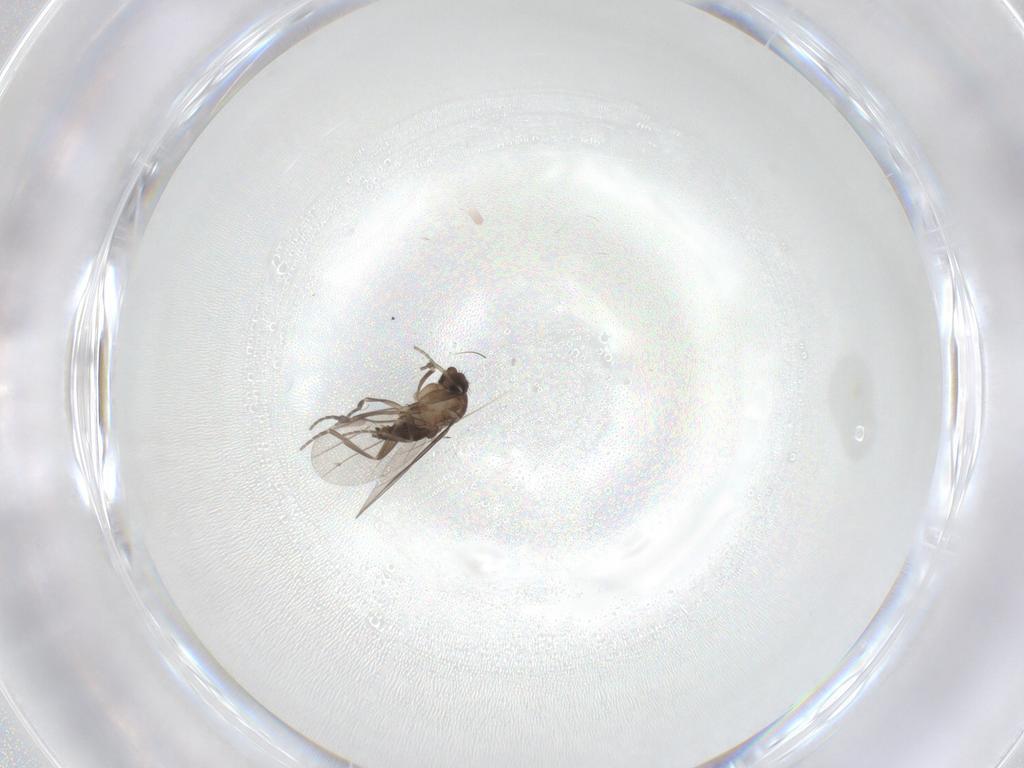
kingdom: Animalia
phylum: Arthropoda
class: Insecta
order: Diptera
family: Phoridae
